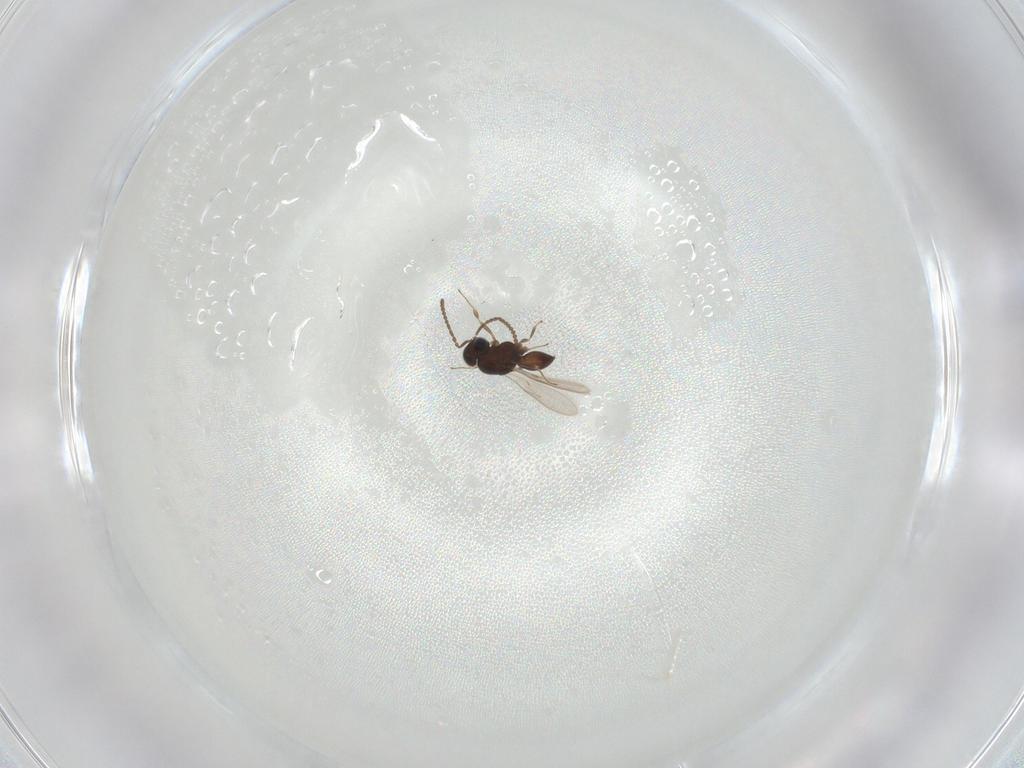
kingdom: Animalia
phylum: Arthropoda
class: Insecta
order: Hymenoptera
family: Scelionidae
